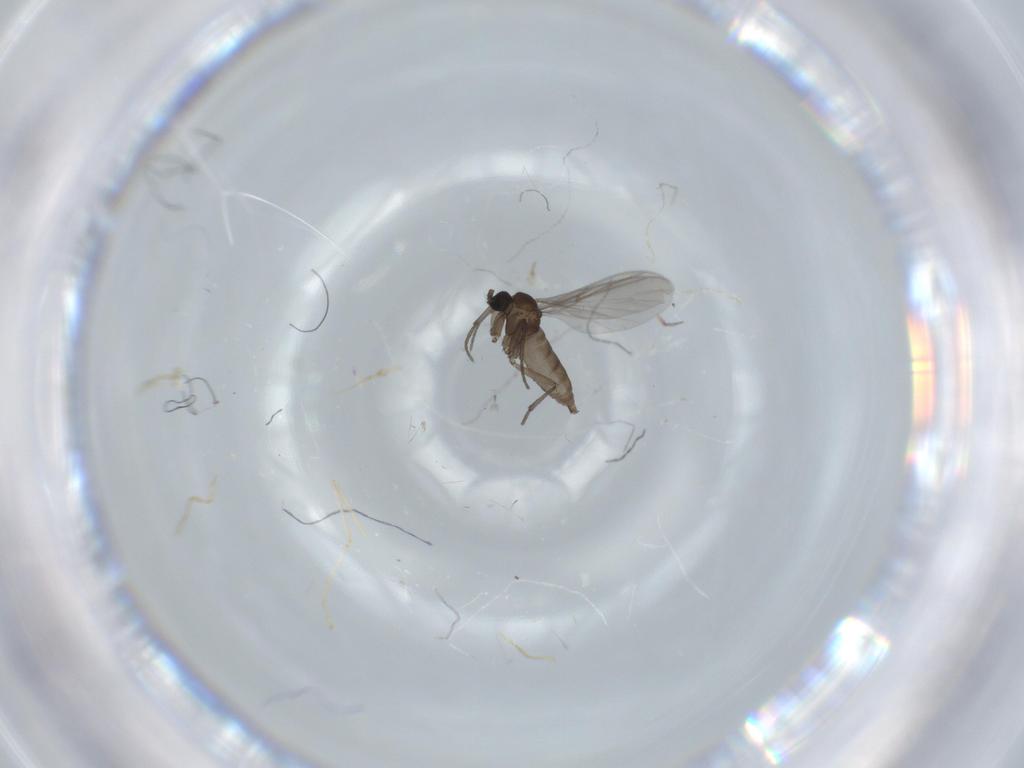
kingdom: Animalia
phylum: Arthropoda
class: Insecta
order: Diptera
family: Sciaridae
